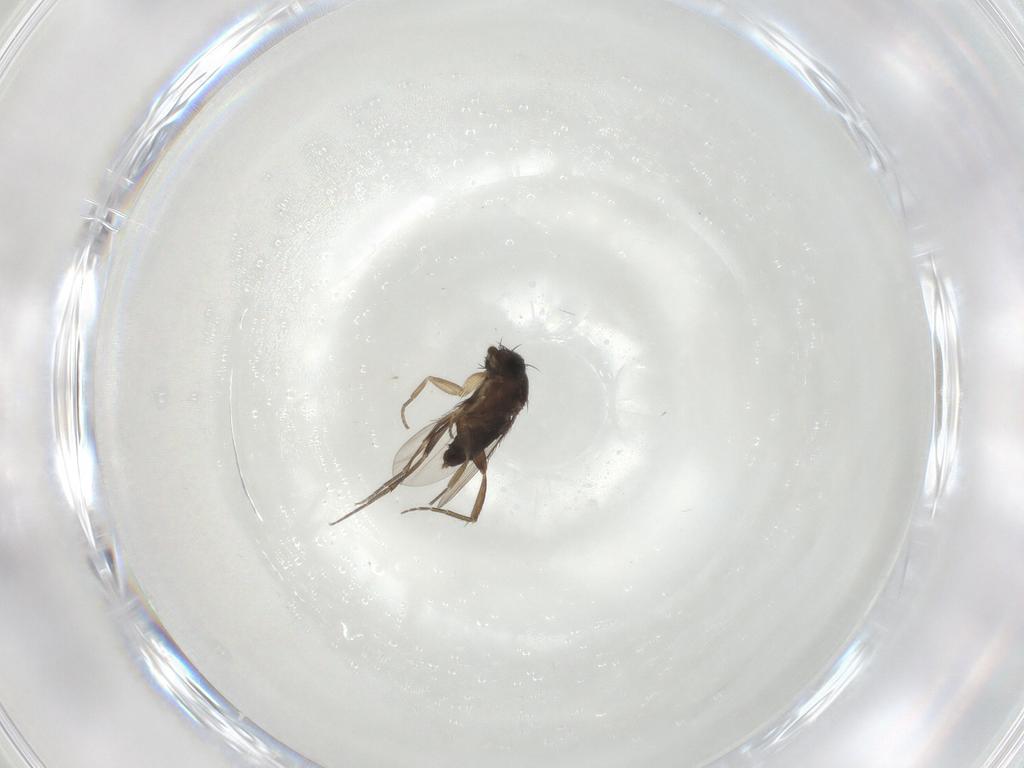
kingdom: Animalia
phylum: Arthropoda
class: Insecta
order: Diptera
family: Phoridae
